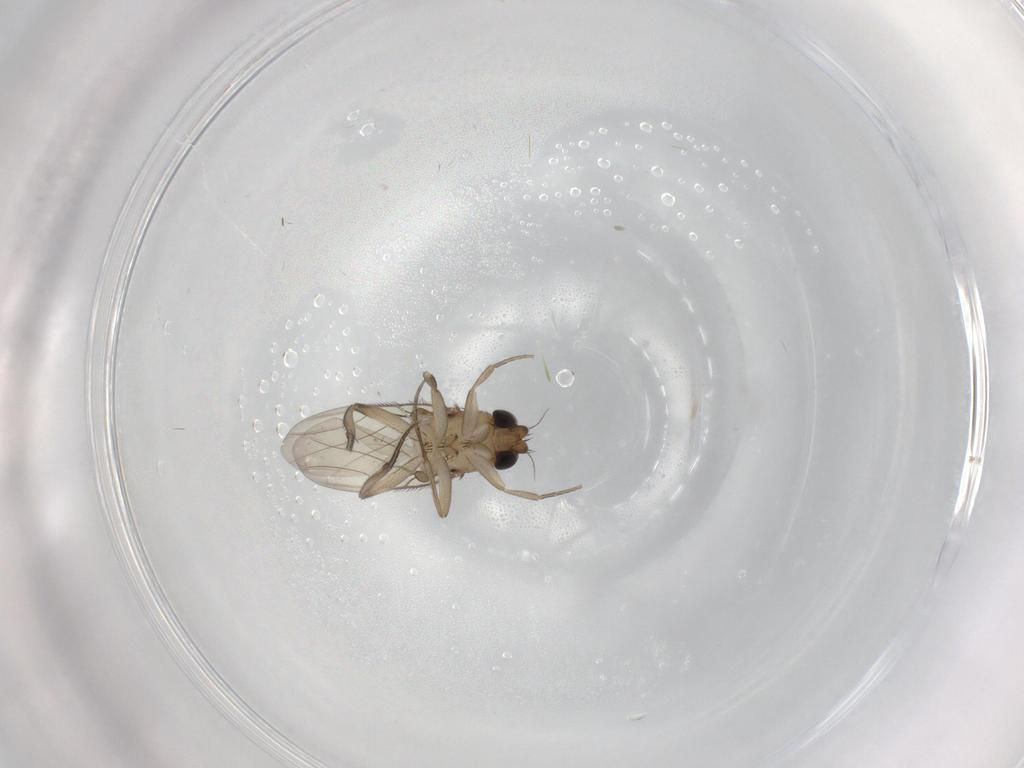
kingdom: Animalia
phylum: Arthropoda
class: Insecta
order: Diptera
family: Phoridae
